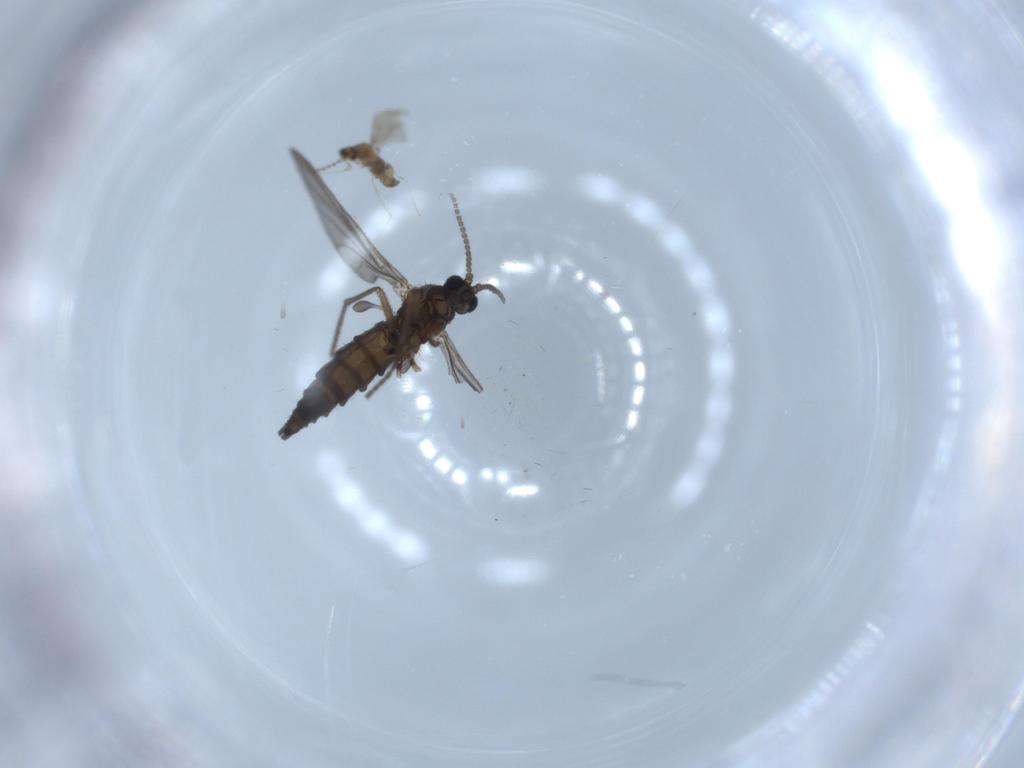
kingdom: Animalia
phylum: Arthropoda
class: Insecta
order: Diptera
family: Sciaridae
